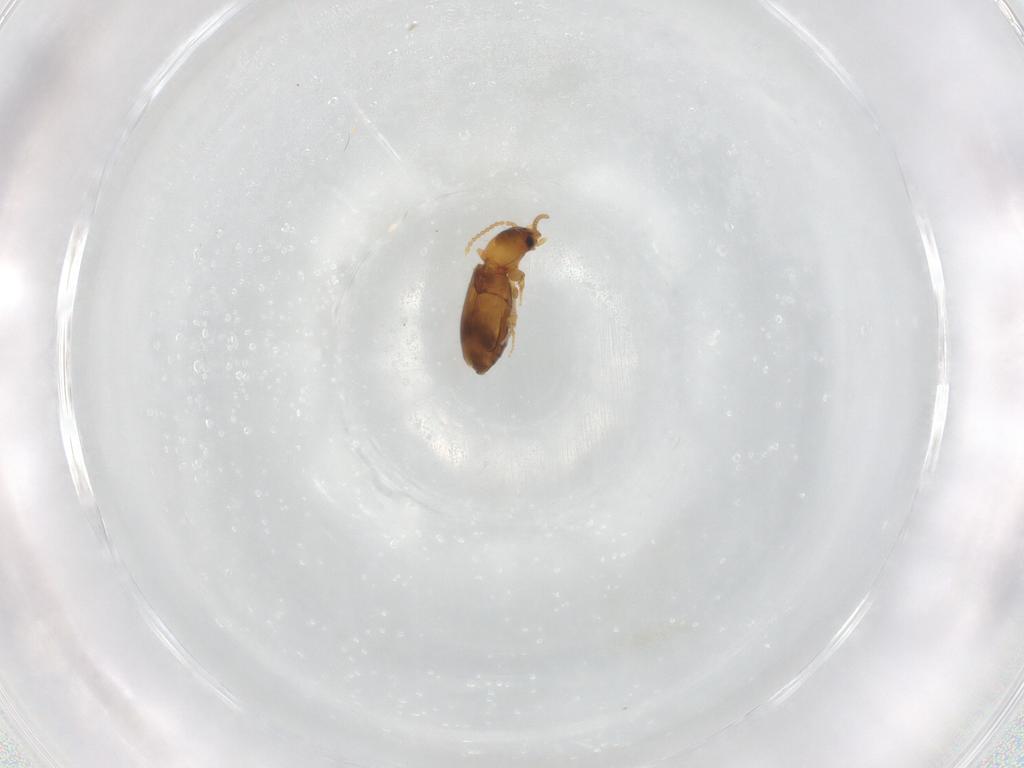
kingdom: Animalia
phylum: Arthropoda
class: Insecta
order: Coleoptera
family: Carabidae
